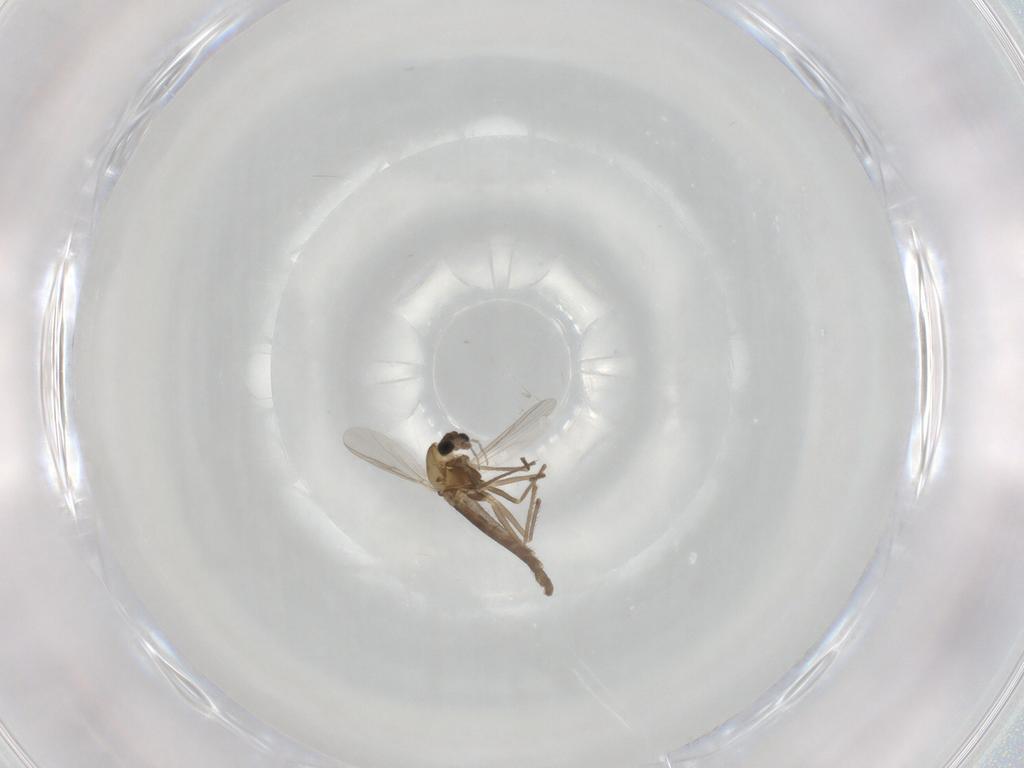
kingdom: Animalia
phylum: Arthropoda
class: Insecta
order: Diptera
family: Chironomidae
